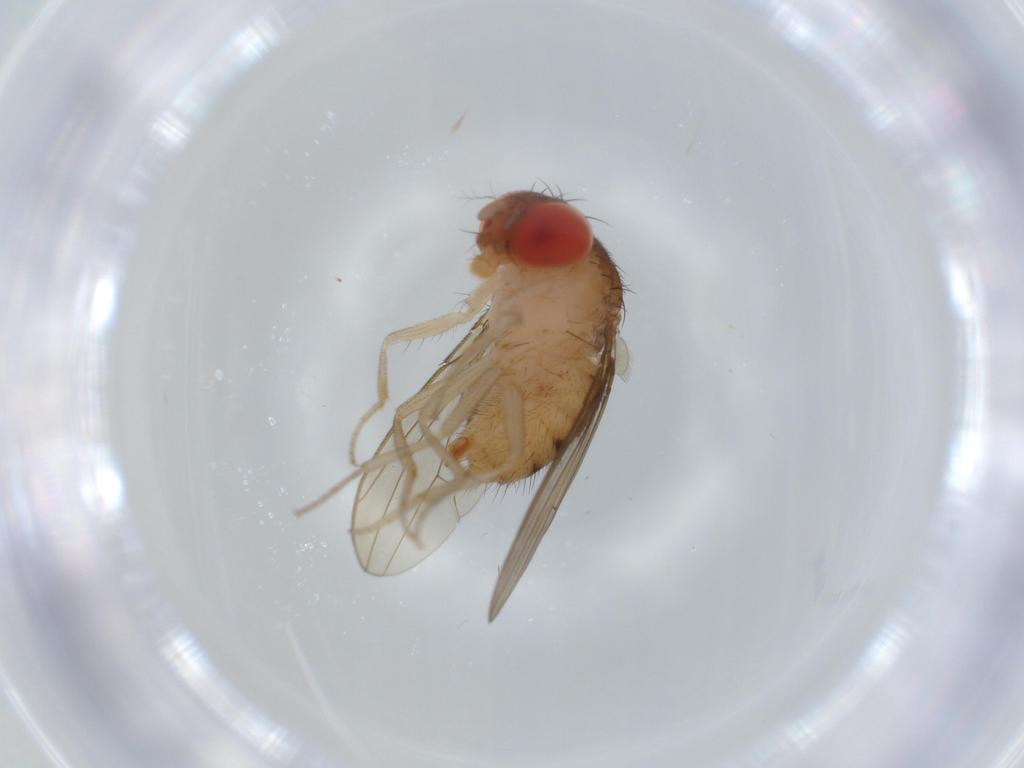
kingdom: Animalia
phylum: Arthropoda
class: Insecta
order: Diptera
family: Drosophilidae
